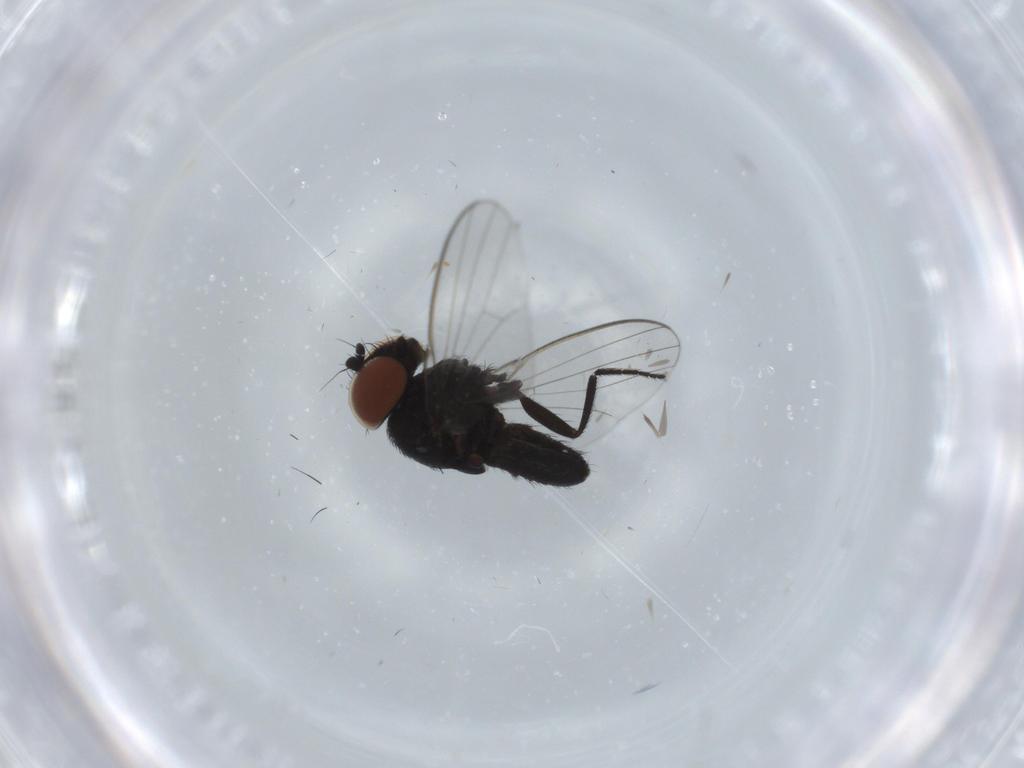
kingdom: Animalia
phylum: Arthropoda
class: Insecta
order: Diptera
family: Milichiidae
